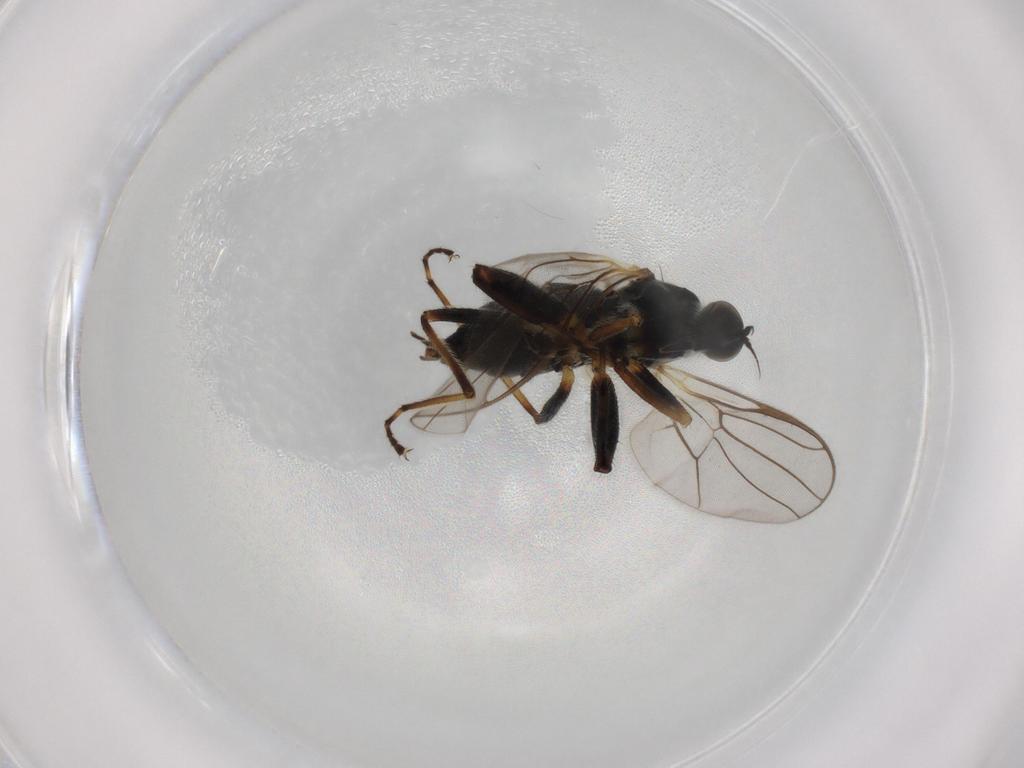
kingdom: Animalia
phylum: Arthropoda
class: Insecta
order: Diptera
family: Hybotidae
